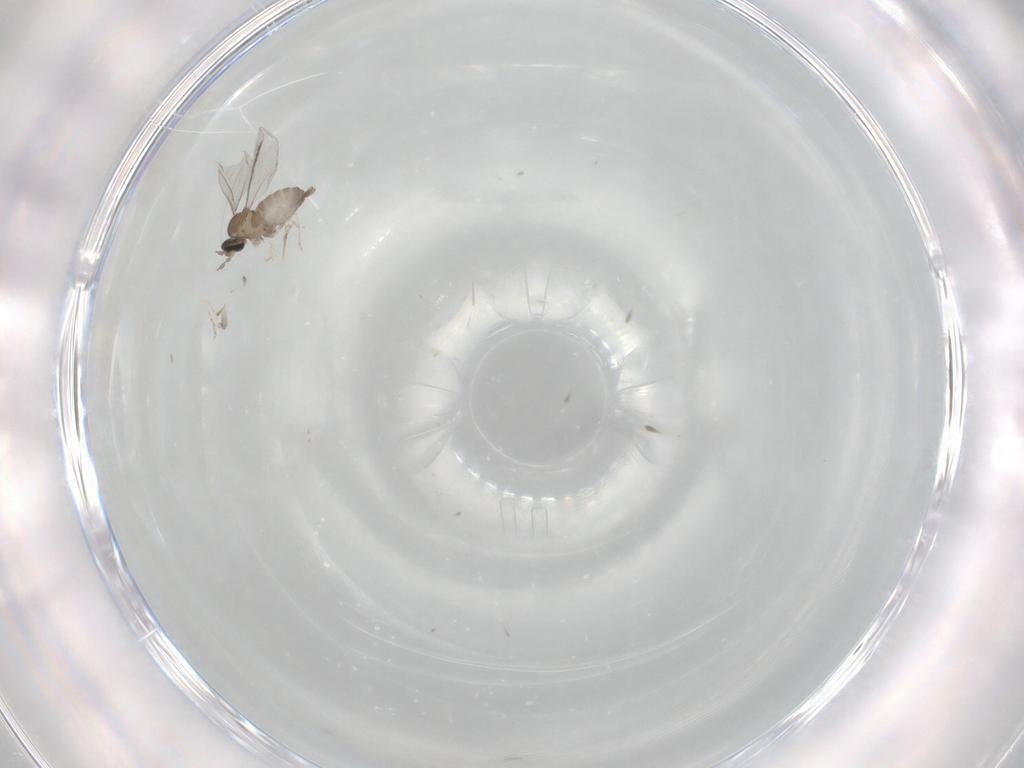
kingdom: Animalia
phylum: Arthropoda
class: Insecta
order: Diptera
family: Cecidomyiidae
